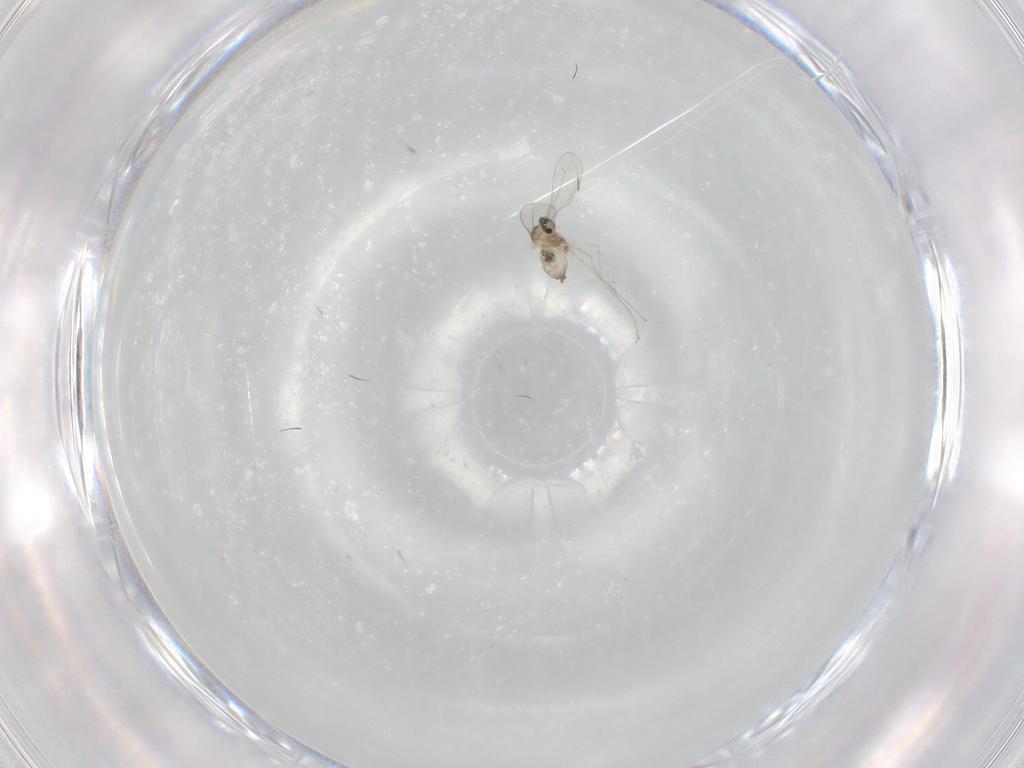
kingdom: Animalia
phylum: Arthropoda
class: Insecta
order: Diptera
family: Cecidomyiidae
